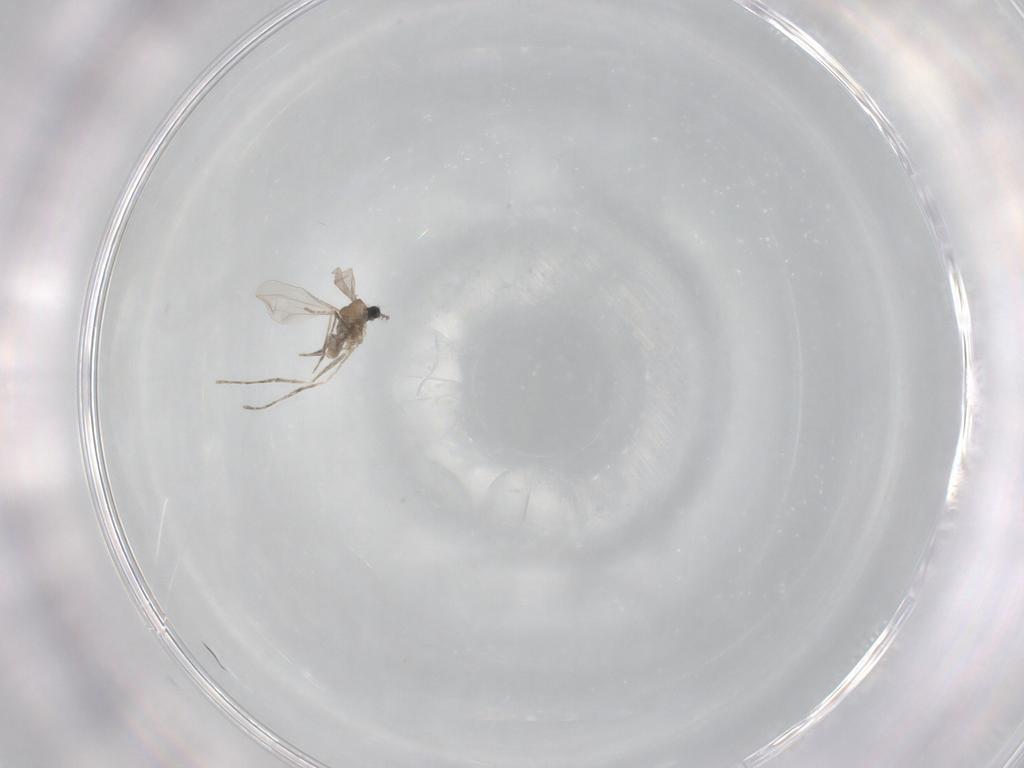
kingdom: Animalia
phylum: Arthropoda
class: Insecta
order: Diptera
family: Cecidomyiidae
